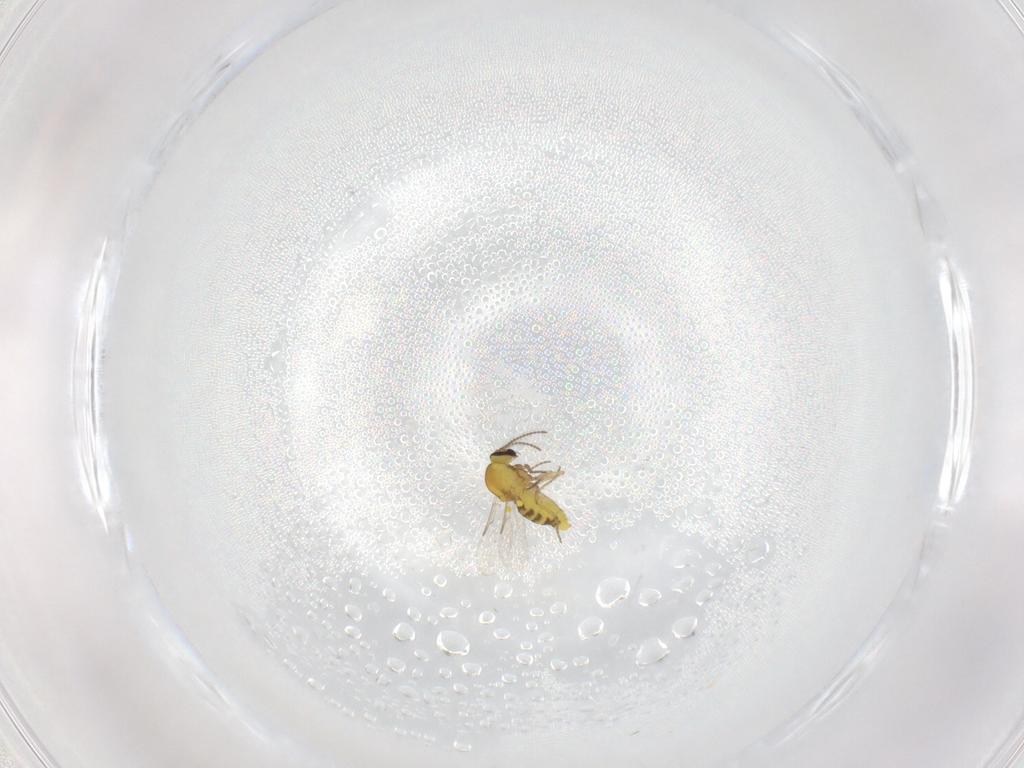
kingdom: Animalia
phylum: Arthropoda
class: Insecta
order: Diptera
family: Ceratopogonidae
